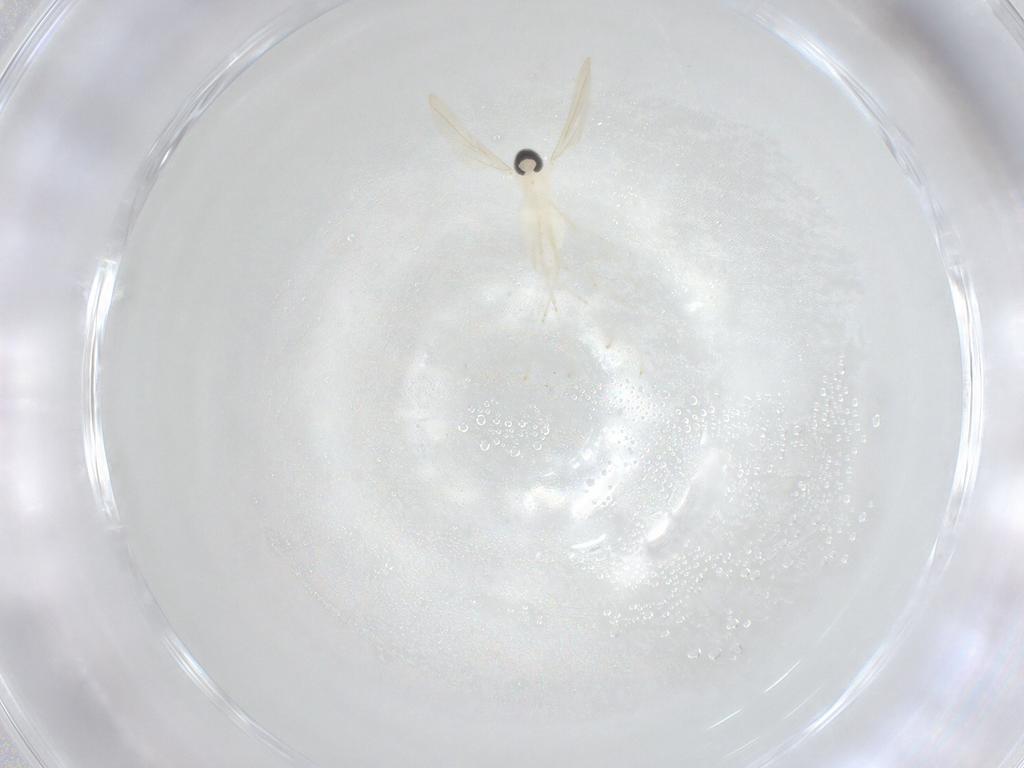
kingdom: Animalia
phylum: Arthropoda
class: Insecta
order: Diptera
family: Cecidomyiidae
